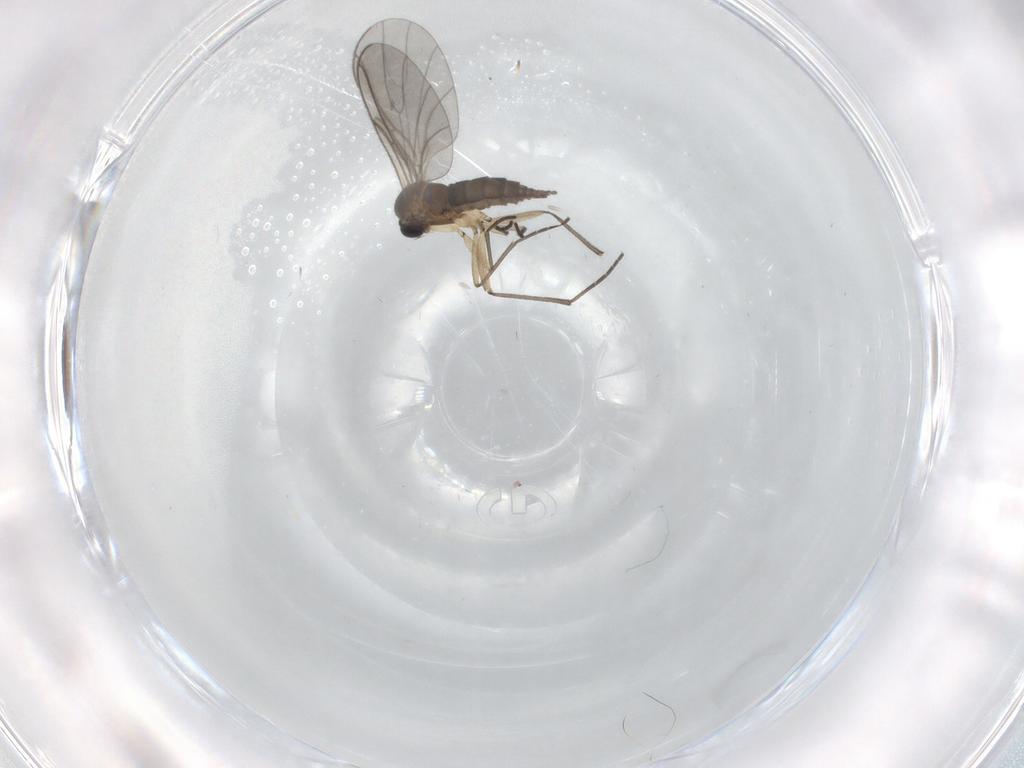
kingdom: Animalia
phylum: Arthropoda
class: Insecta
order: Diptera
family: Sciaridae
